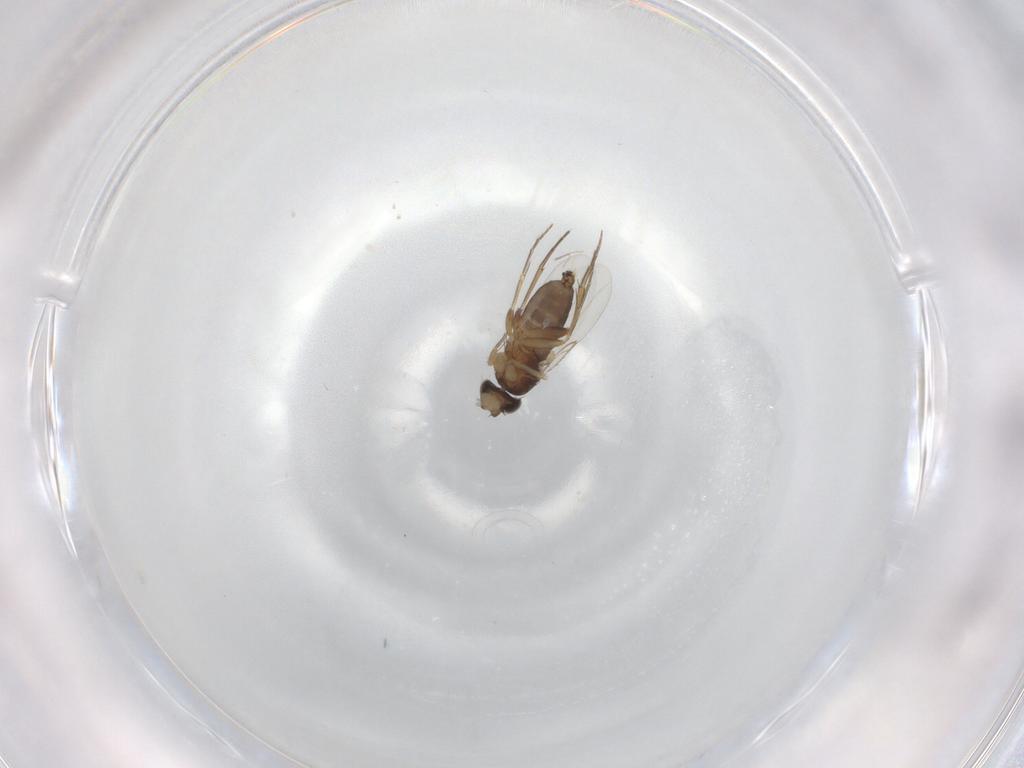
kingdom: Animalia
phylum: Arthropoda
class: Insecta
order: Diptera
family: Phoridae
